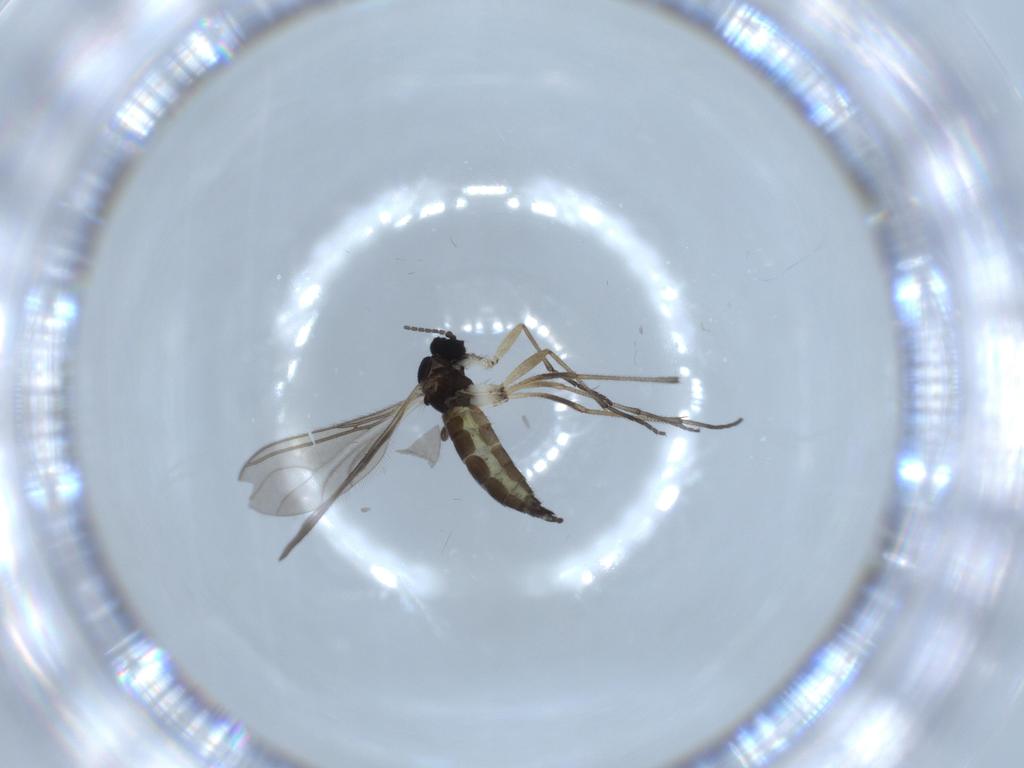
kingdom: Animalia
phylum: Arthropoda
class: Insecta
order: Diptera
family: Sciaridae
